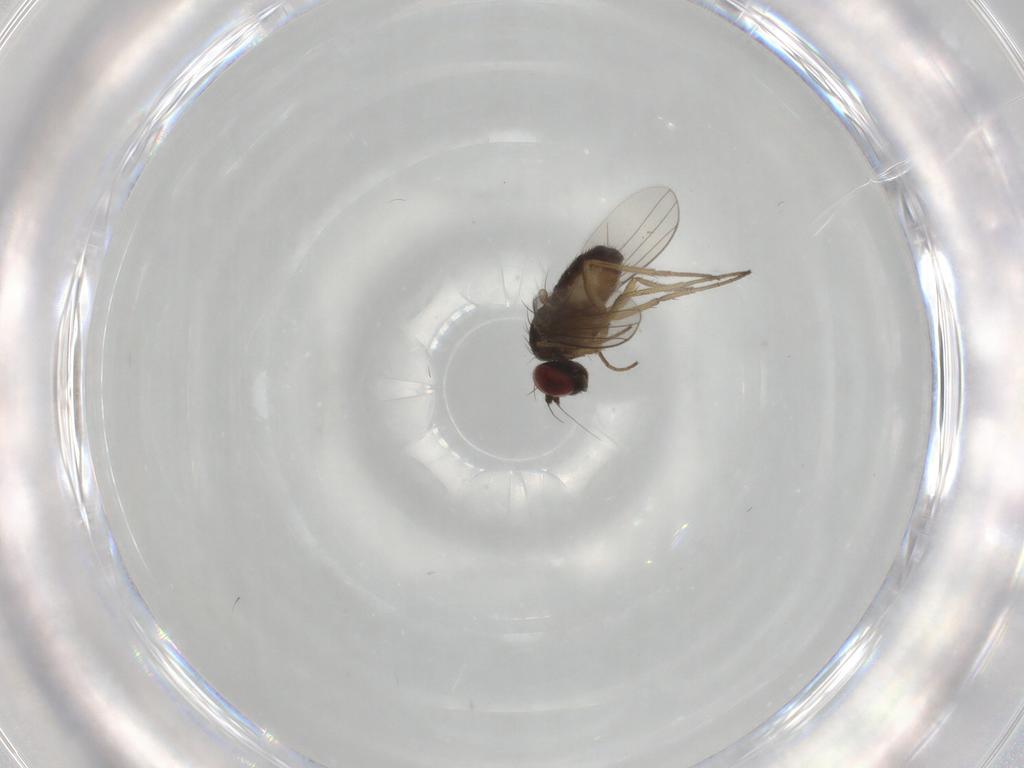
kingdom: Animalia
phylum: Arthropoda
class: Insecta
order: Diptera
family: Dolichopodidae
